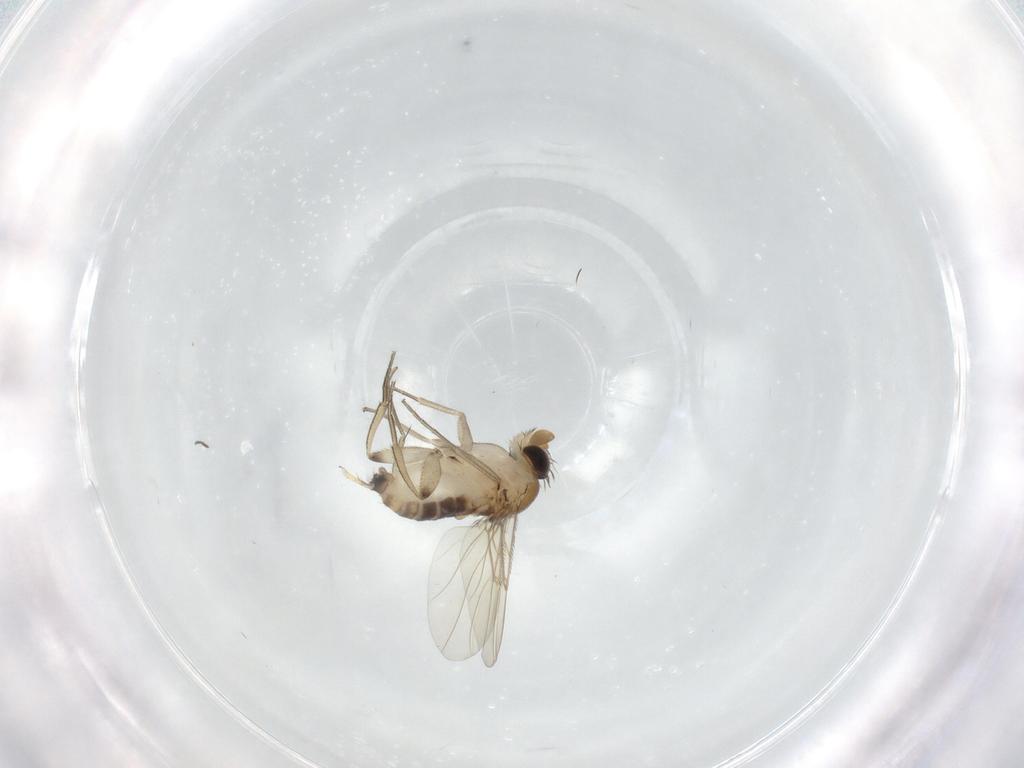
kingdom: Animalia
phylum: Arthropoda
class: Insecta
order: Diptera
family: Phoridae
